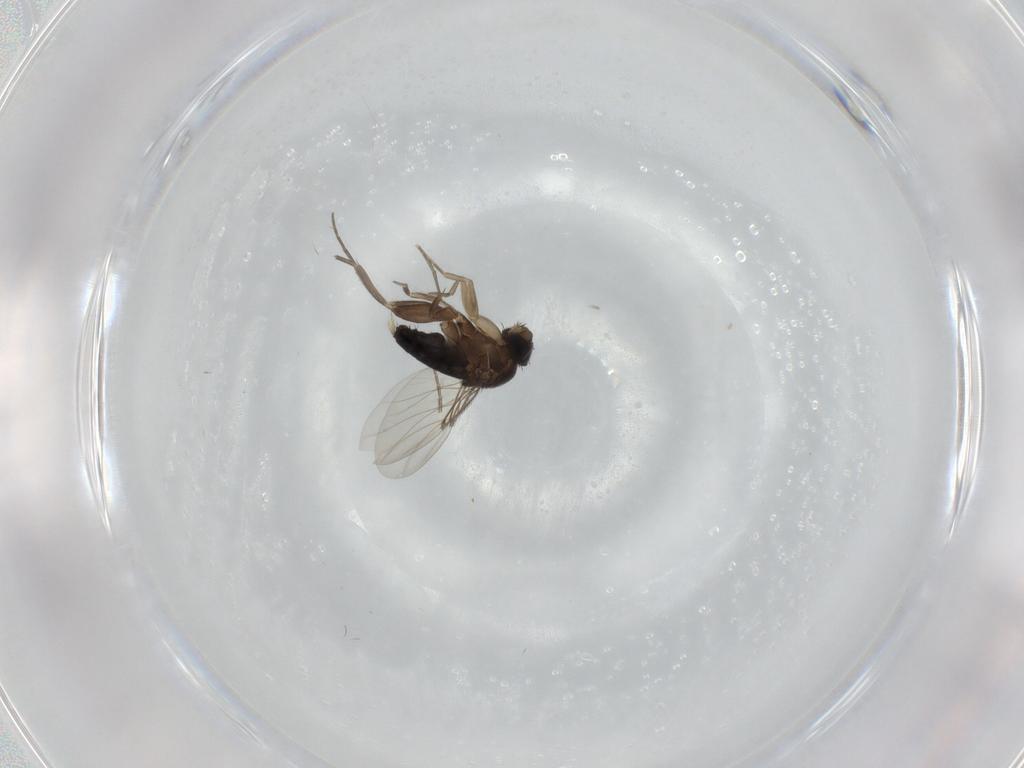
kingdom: Animalia
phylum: Arthropoda
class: Insecta
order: Diptera
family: Phoridae
